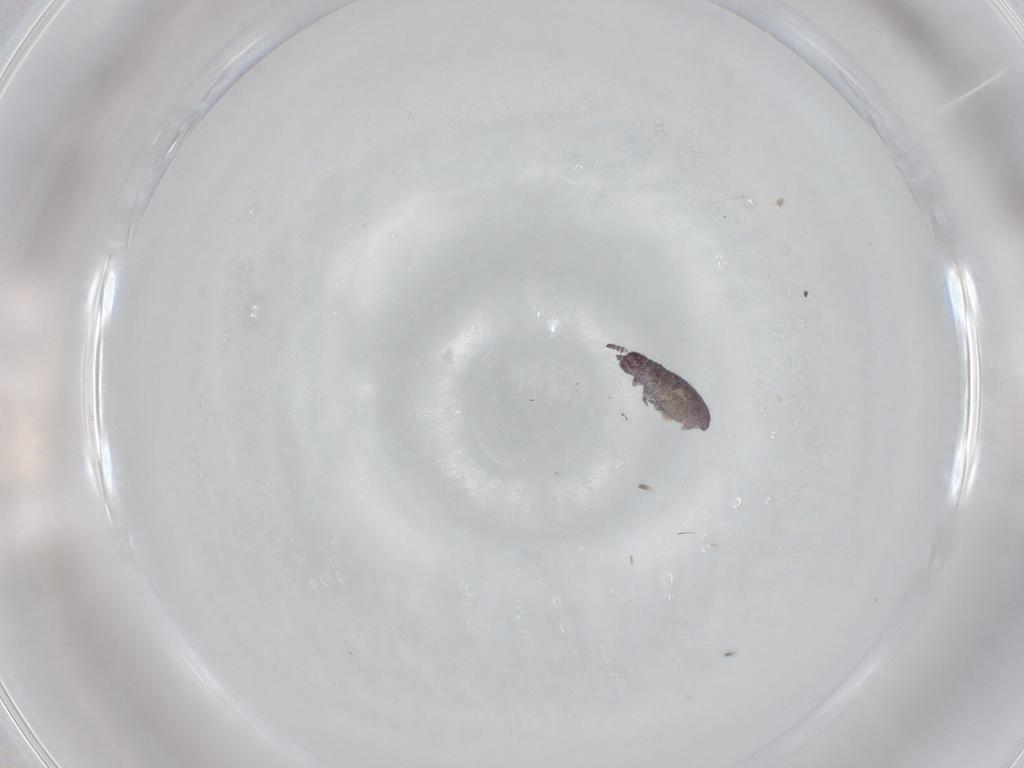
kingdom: Animalia
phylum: Arthropoda
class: Collembola
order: Poduromorpha
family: Brachystomellidae
